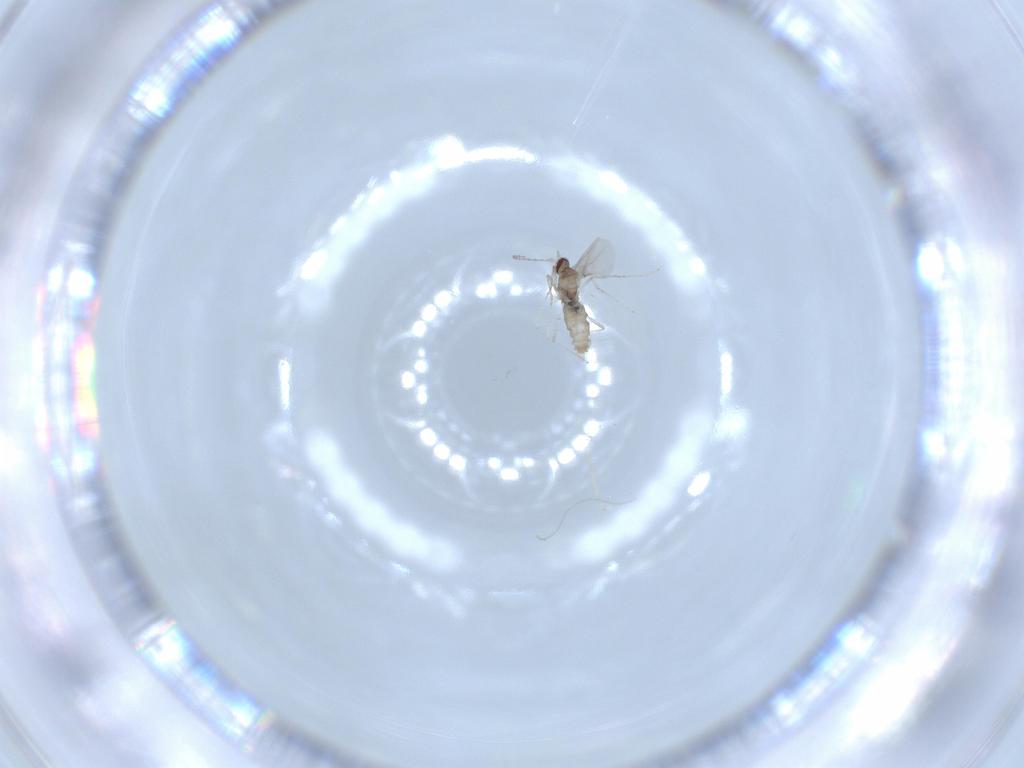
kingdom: Animalia
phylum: Arthropoda
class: Insecta
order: Diptera
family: Cecidomyiidae
